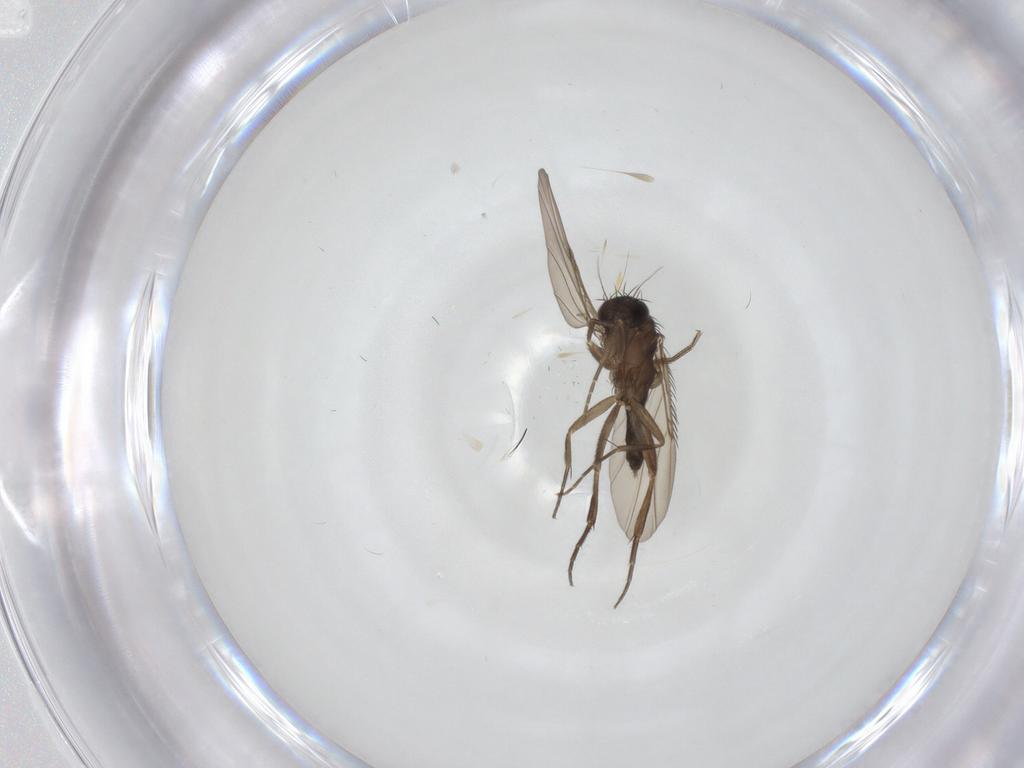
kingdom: Animalia
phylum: Arthropoda
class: Insecta
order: Diptera
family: Phoridae
